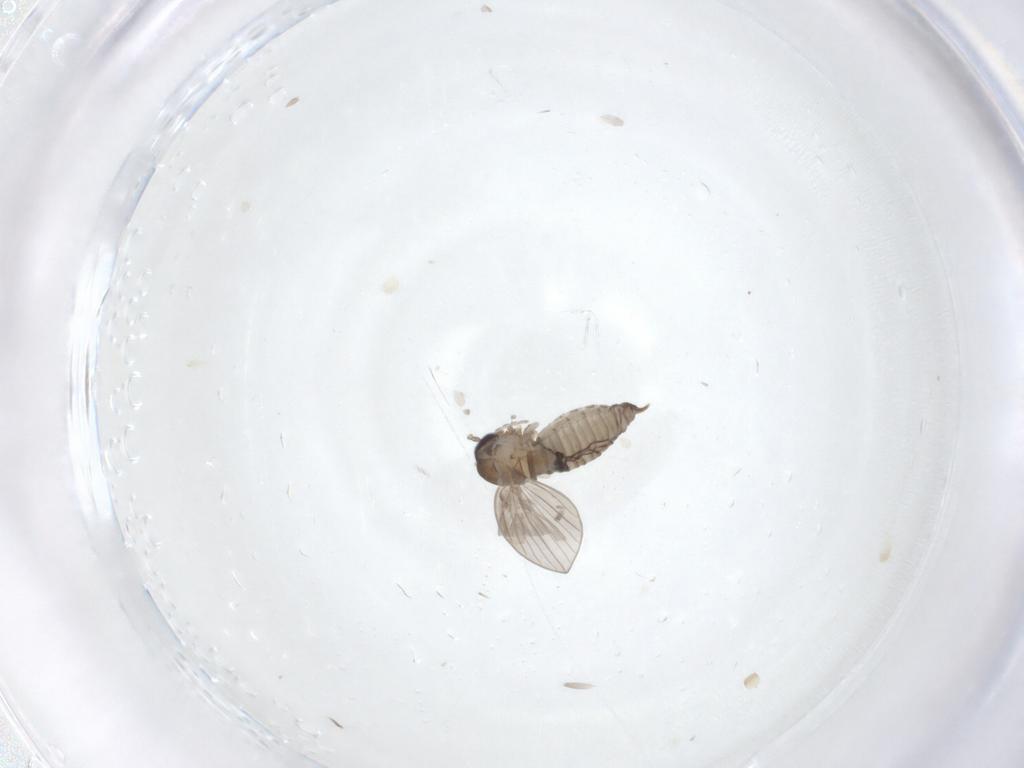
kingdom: Animalia
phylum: Arthropoda
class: Insecta
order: Diptera
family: Psychodidae
